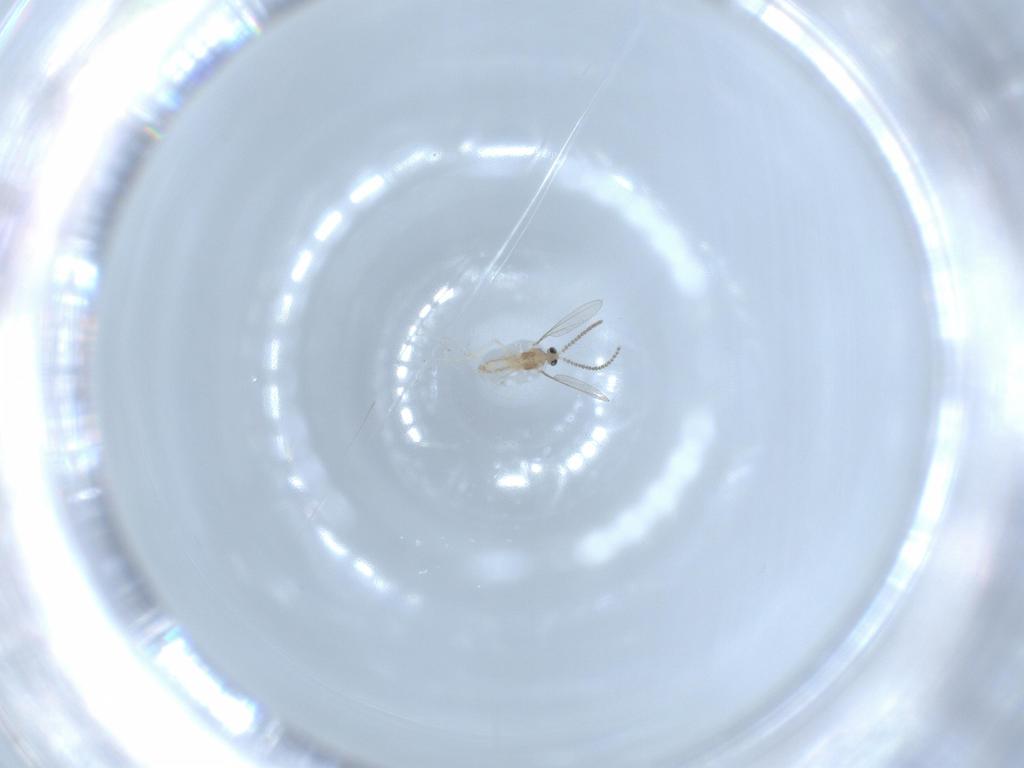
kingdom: Animalia
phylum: Arthropoda
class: Insecta
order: Diptera
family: Cecidomyiidae
